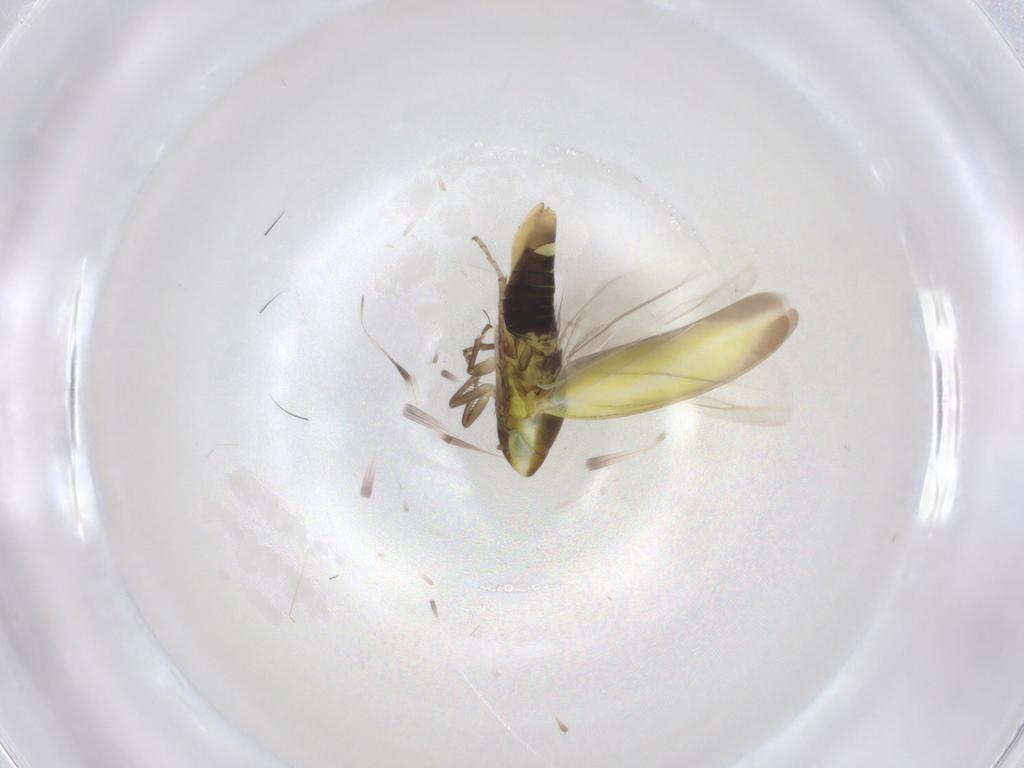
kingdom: Animalia
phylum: Arthropoda
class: Insecta
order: Hemiptera
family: Cicadellidae
